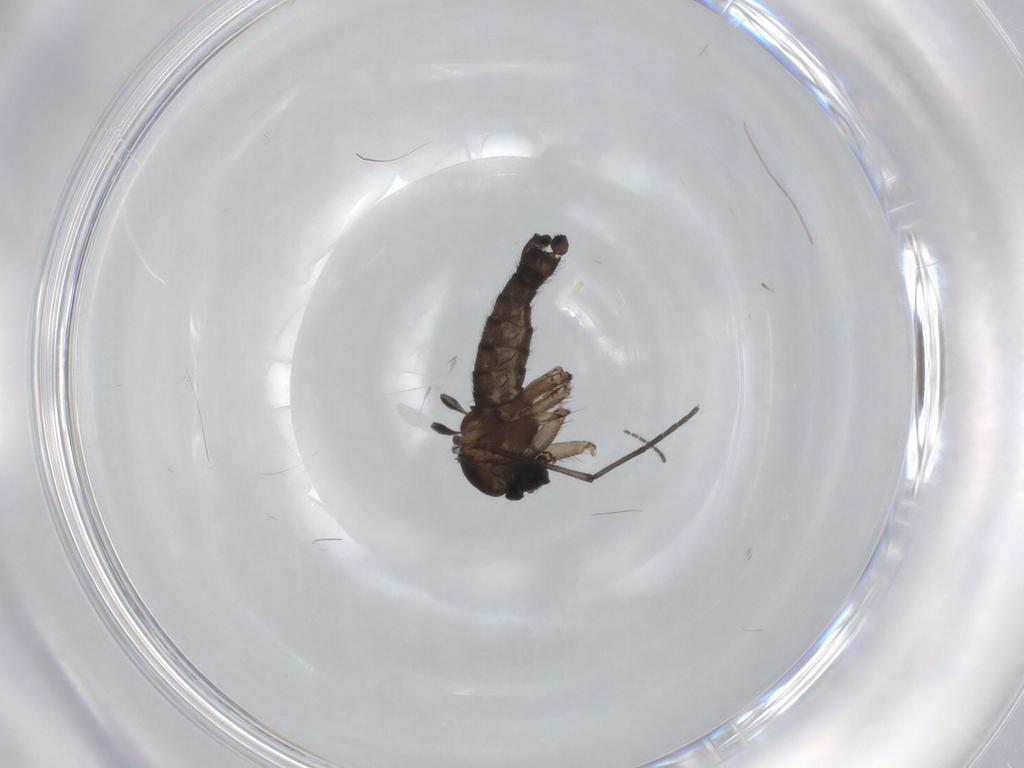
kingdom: Animalia
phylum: Arthropoda
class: Insecta
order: Diptera
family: Sciaridae
